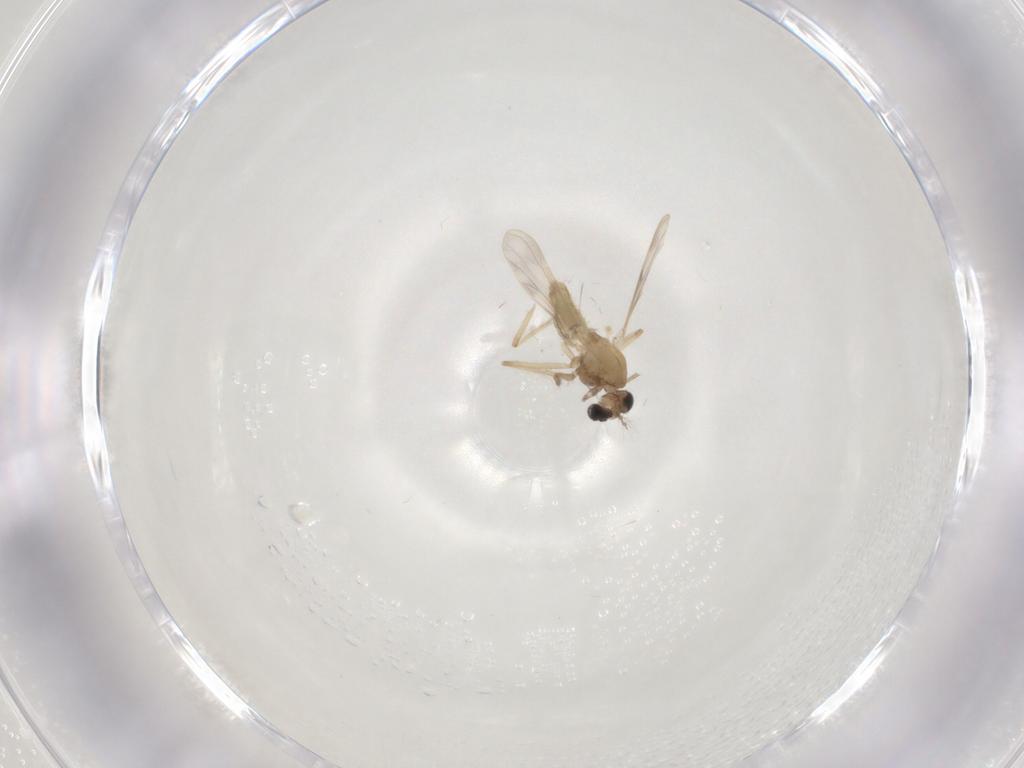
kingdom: Animalia
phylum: Arthropoda
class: Insecta
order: Diptera
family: Chironomidae
